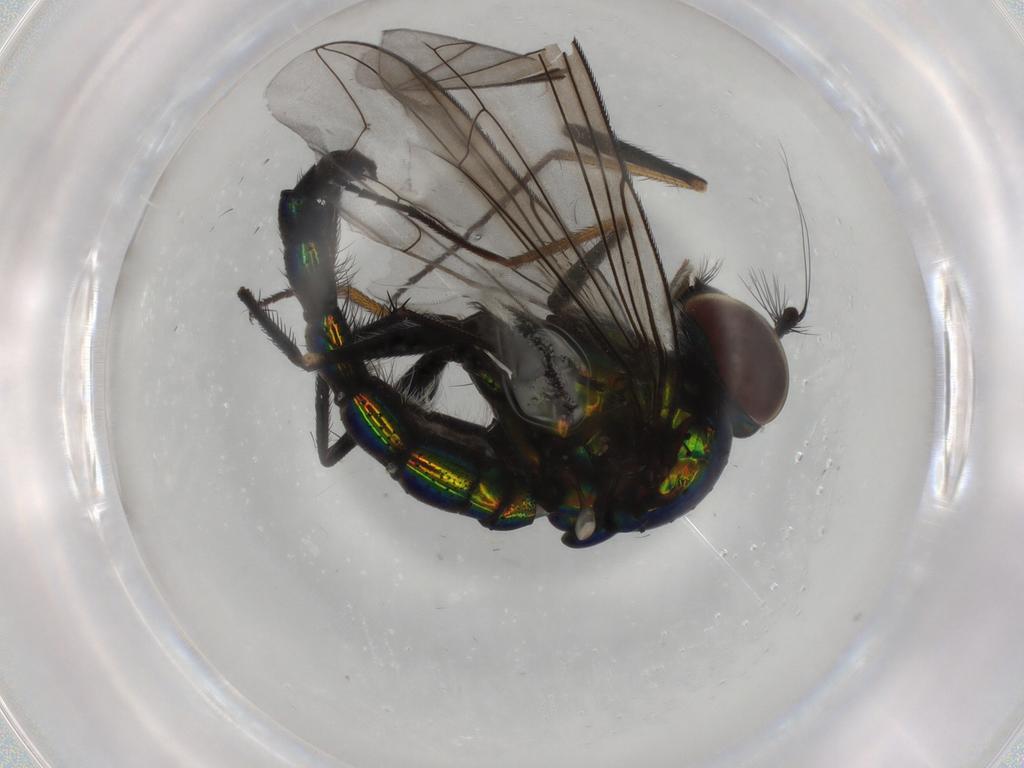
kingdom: Animalia
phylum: Arthropoda
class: Insecta
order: Diptera
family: Dolichopodidae
